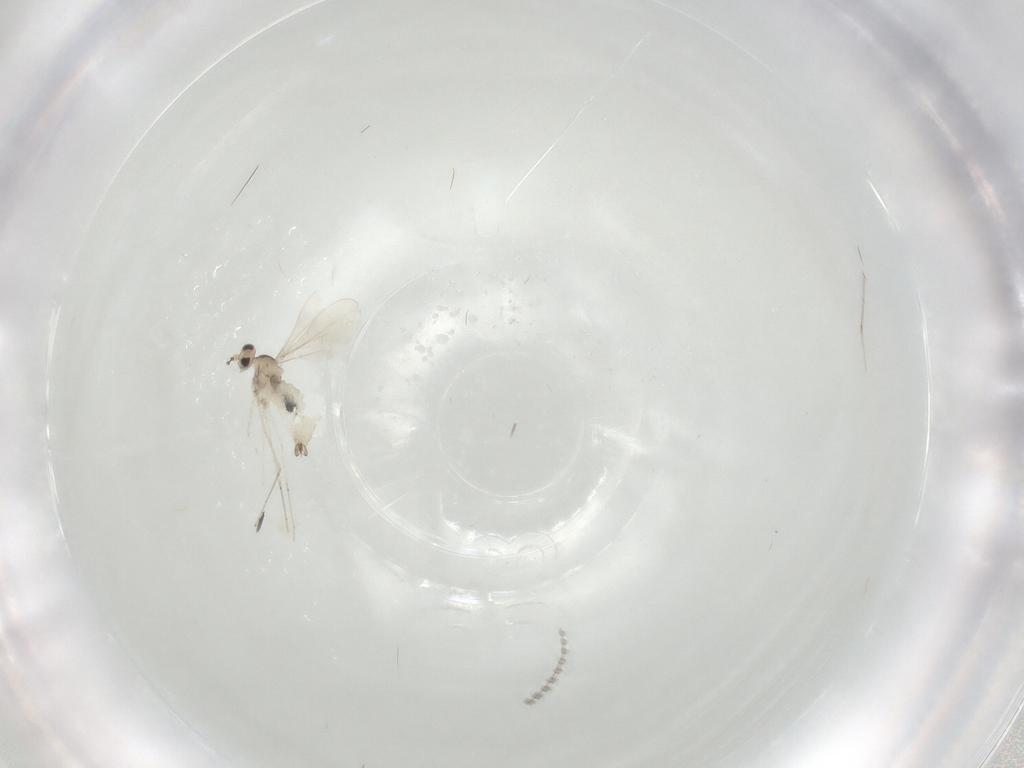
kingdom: Animalia
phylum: Arthropoda
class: Insecta
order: Diptera
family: Cecidomyiidae
